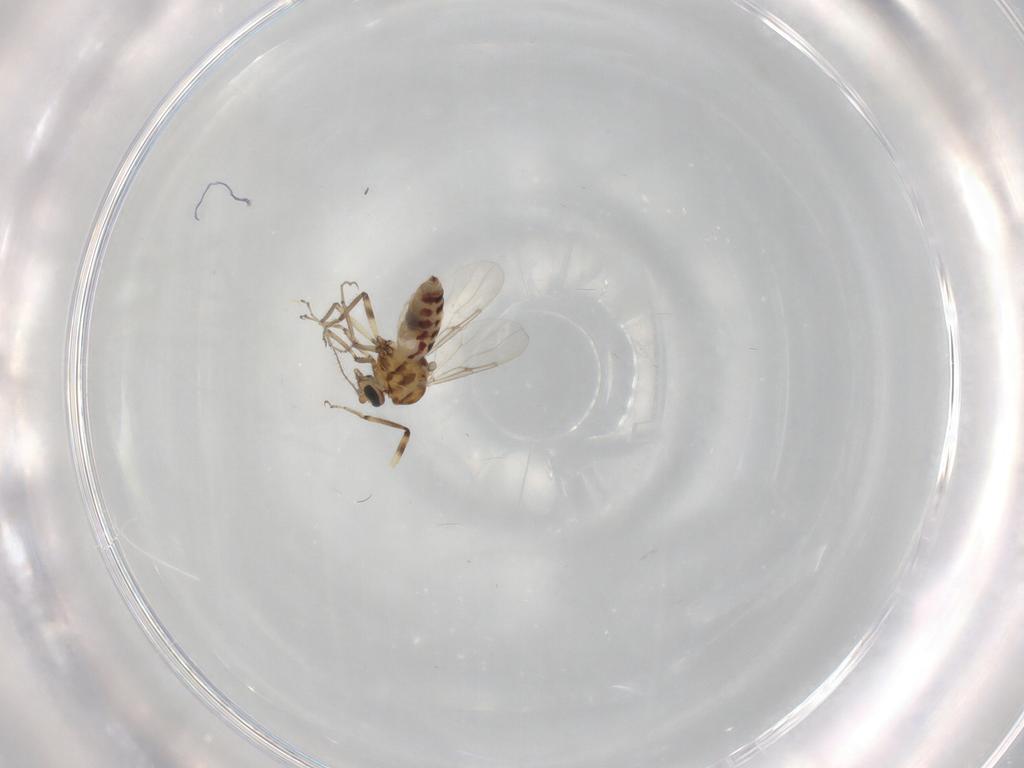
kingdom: Animalia
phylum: Arthropoda
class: Insecta
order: Diptera
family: Ceratopogonidae
